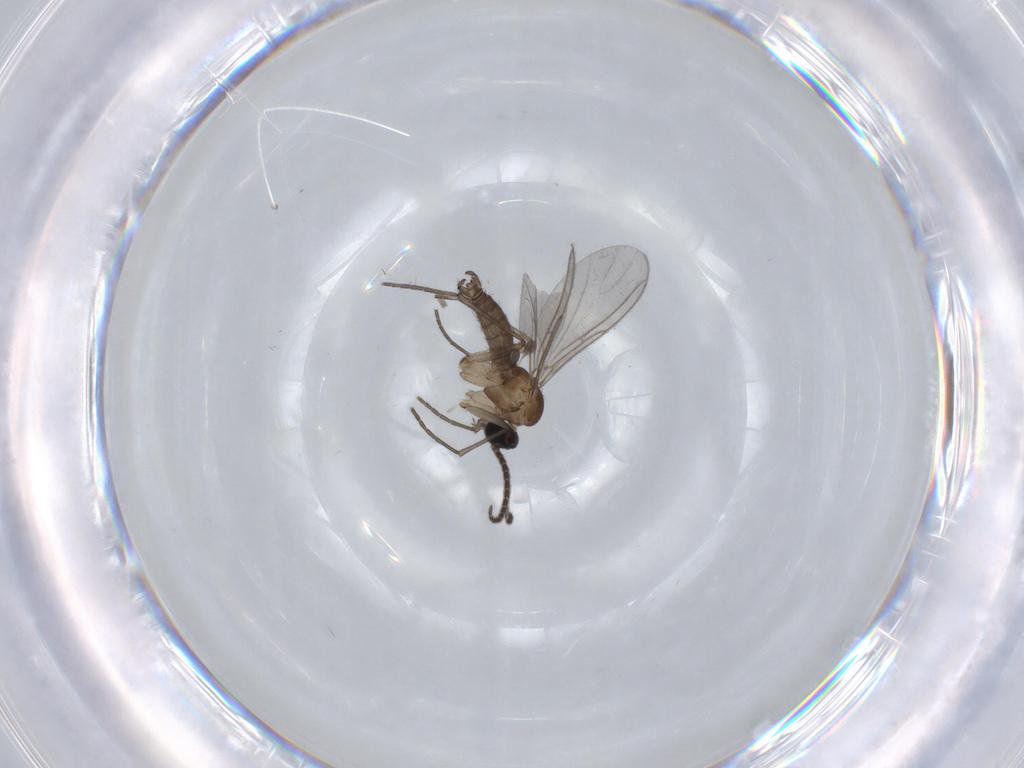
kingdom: Animalia
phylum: Arthropoda
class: Insecta
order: Diptera
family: Sciaridae
